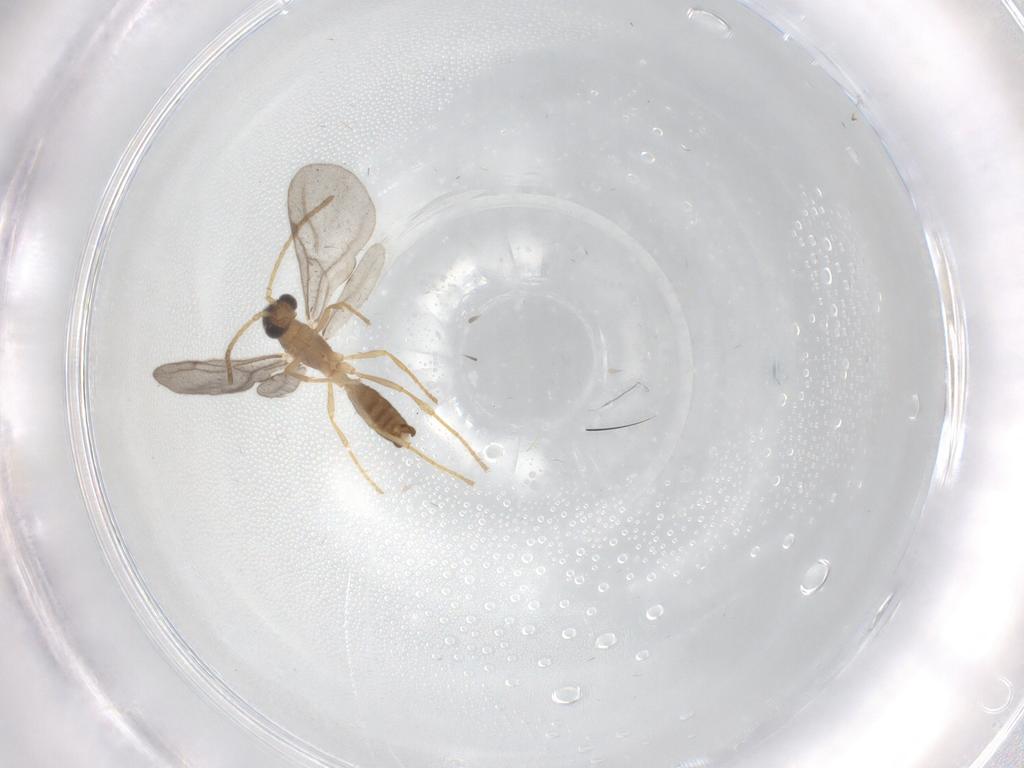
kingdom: Animalia
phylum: Arthropoda
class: Insecta
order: Hymenoptera
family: Formicidae
